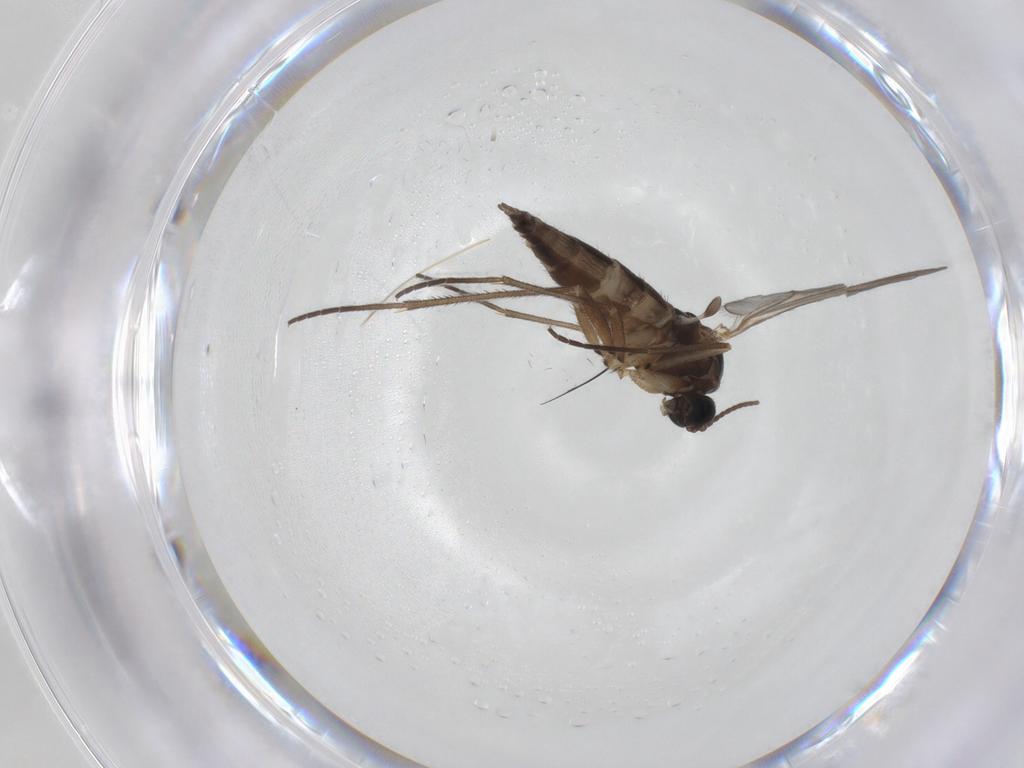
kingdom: Animalia
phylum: Arthropoda
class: Insecta
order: Diptera
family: Sciaridae
